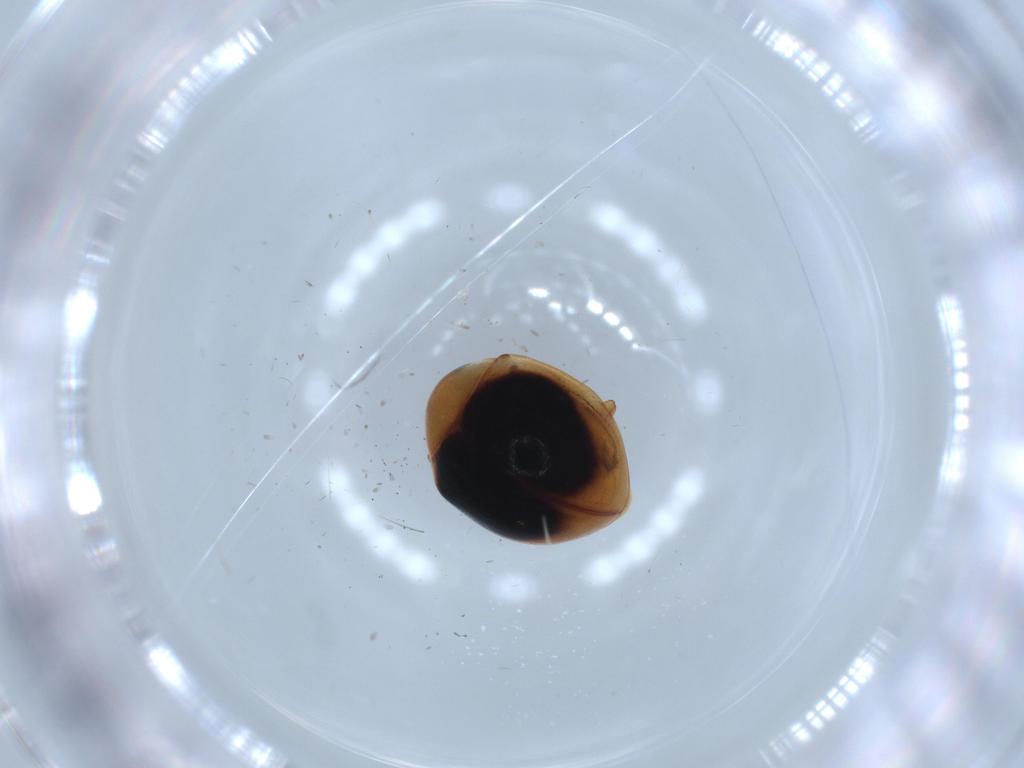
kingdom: Animalia
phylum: Arthropoda
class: Insecta
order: Coleoptera
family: Coccinellidae
